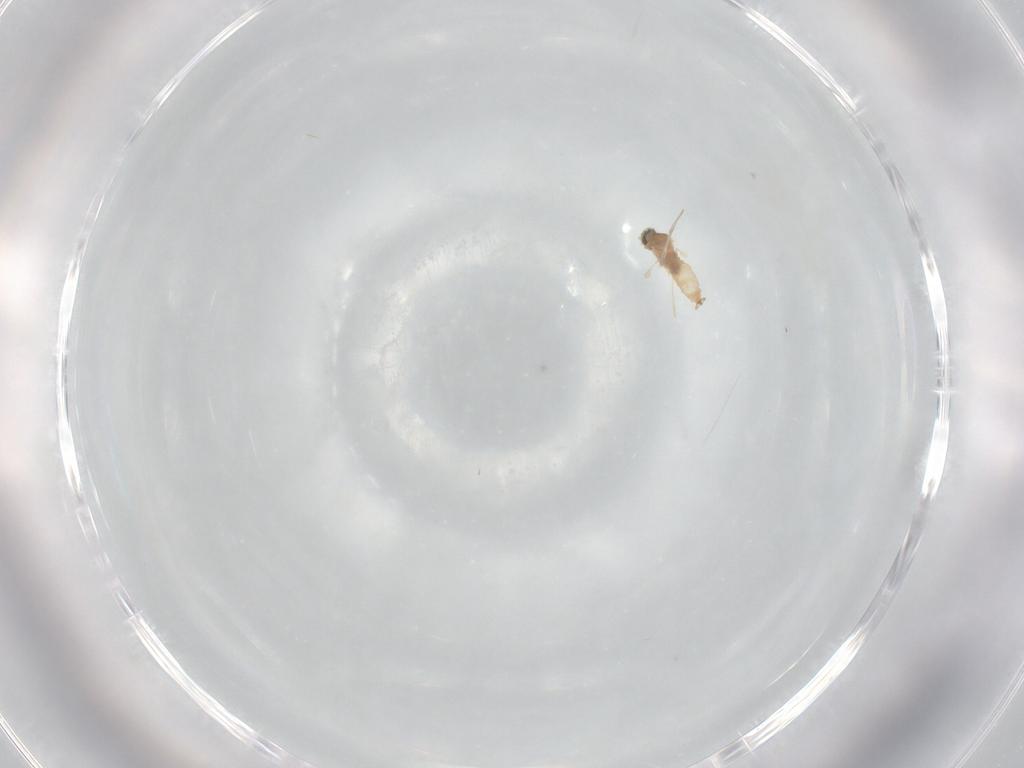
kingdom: Animalia
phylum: Arthropoda
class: Insecta
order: Diptera
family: Cecidomyiidae
